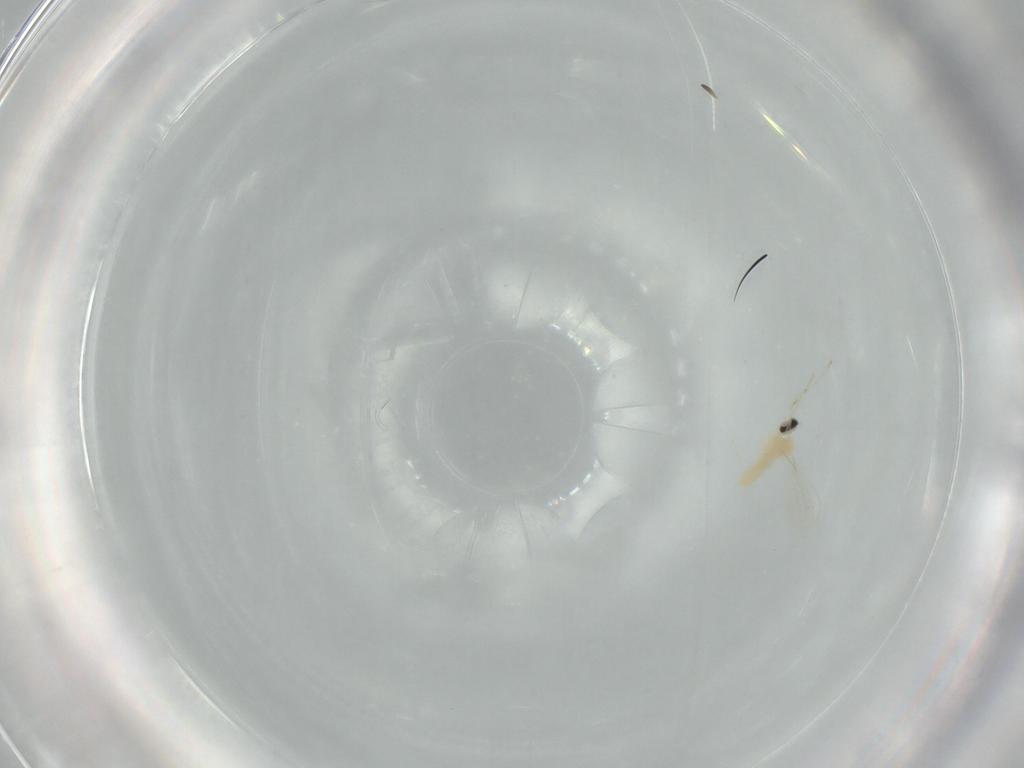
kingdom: Animalia
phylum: Arthropoda
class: Insecta
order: Diptera
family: Cecidomyiidae
